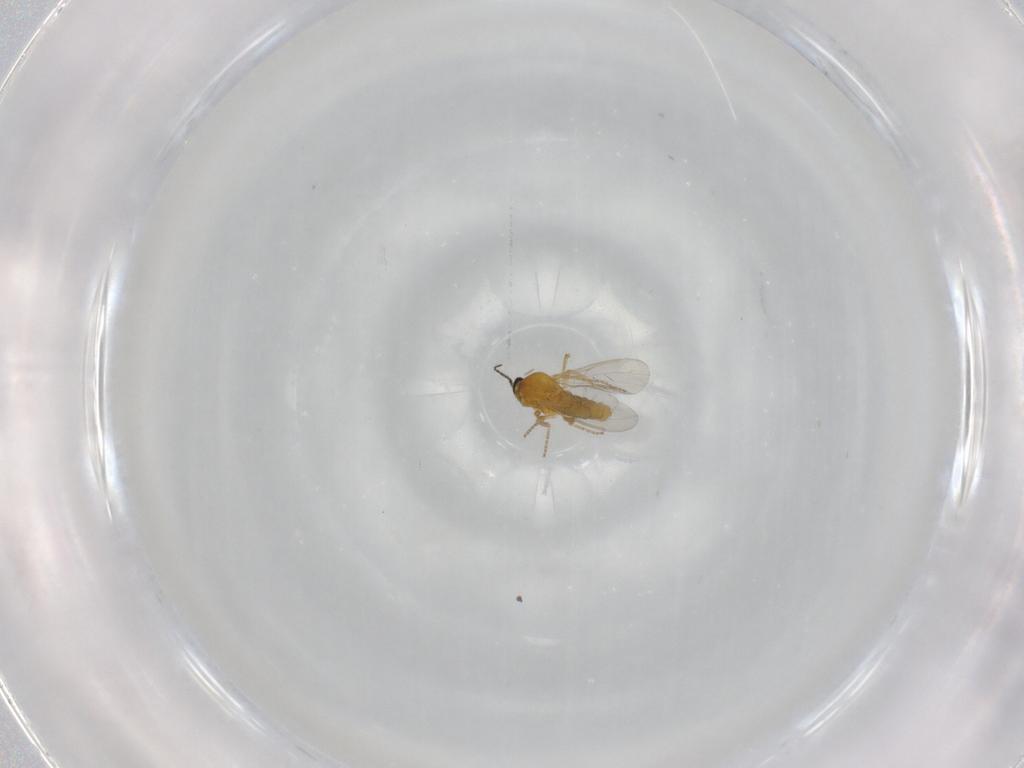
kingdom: Animalia
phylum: Arthropoda
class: Insecta
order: Diptera
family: Ceratopogonidae
